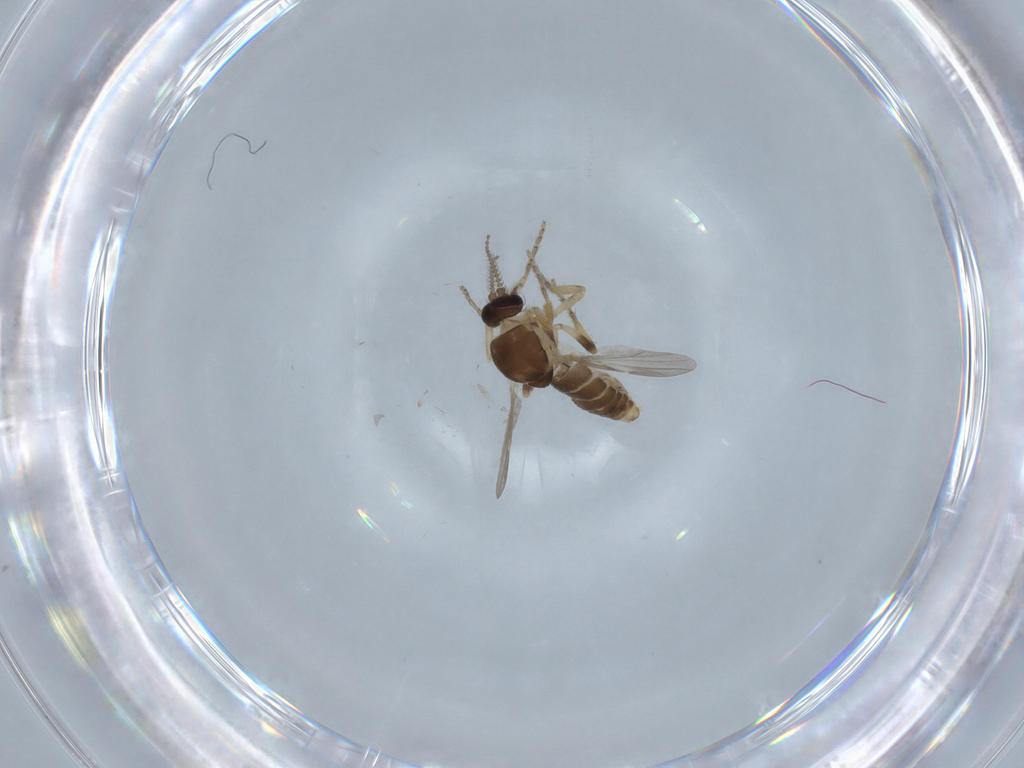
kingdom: Animalia
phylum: Arthropoda
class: Insecta
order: Diptera
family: Ceratopogonidae
